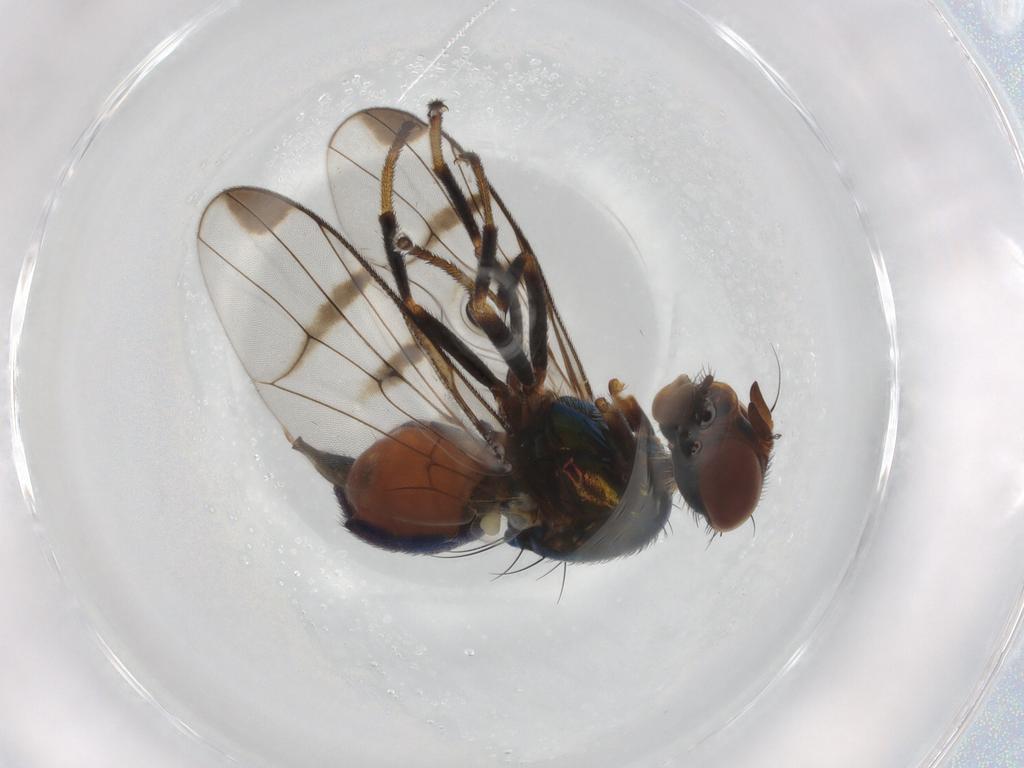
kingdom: Animalia
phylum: Arthropoda
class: Insecta
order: Diptera
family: Platystomatidae
